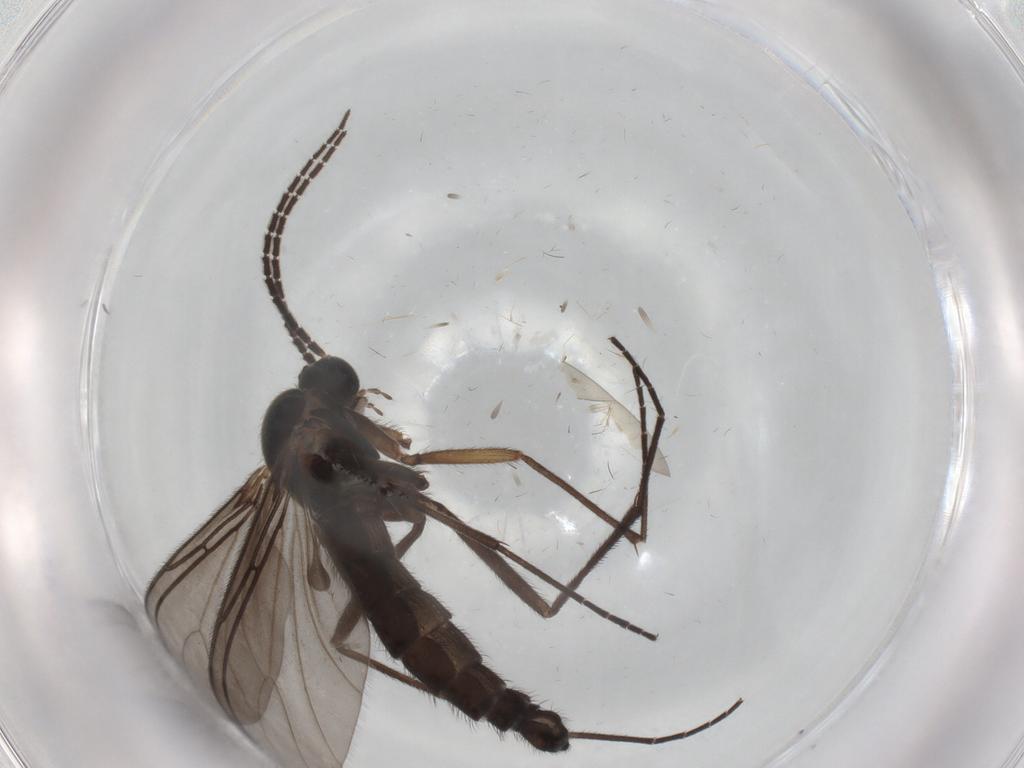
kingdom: Animalia
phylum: Arthropoda
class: Insecta
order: Diptera
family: Sciaridae
